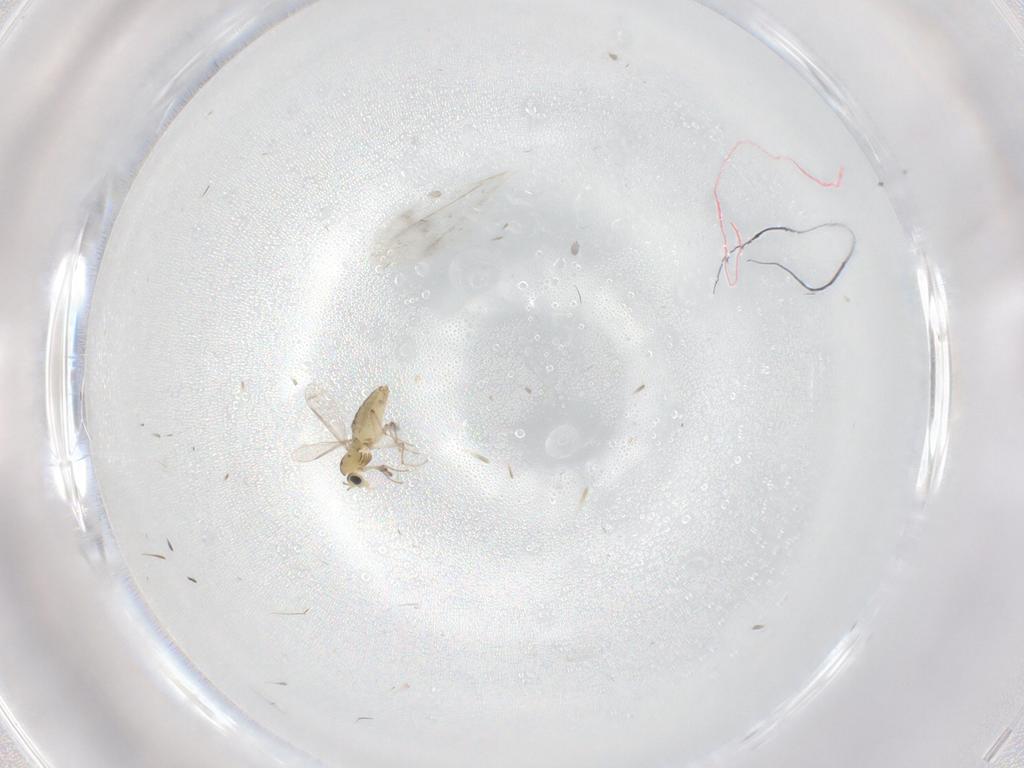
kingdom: Animalia
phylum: Arthropoda
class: Insecta
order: Diptera
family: Chironomidae
